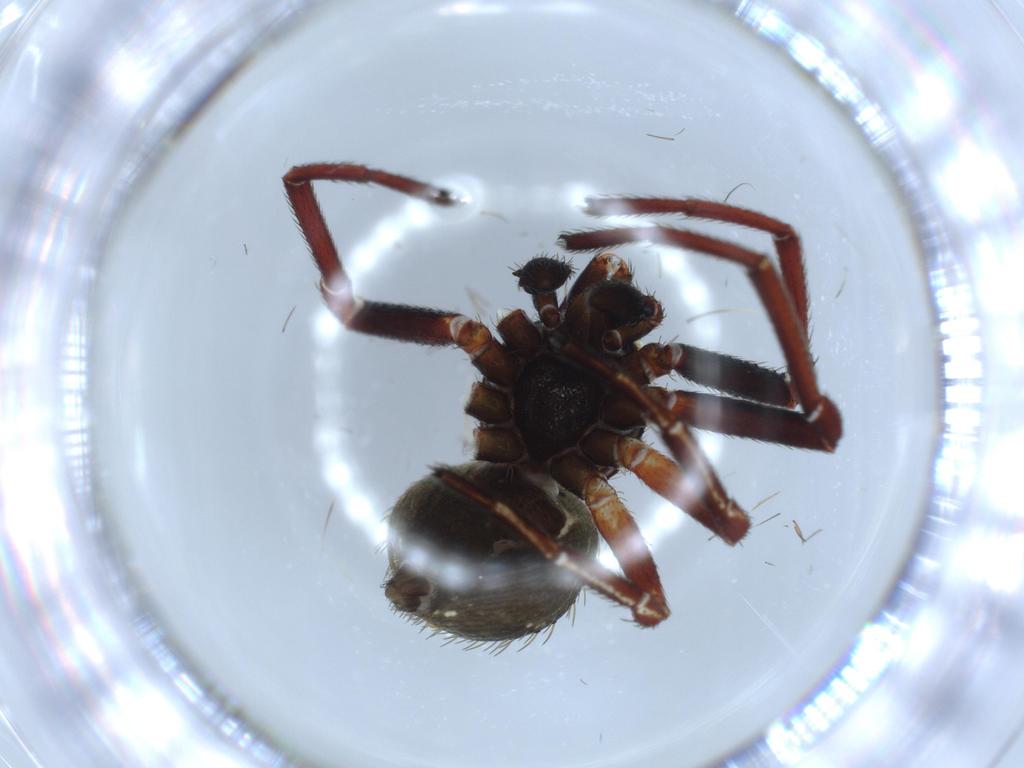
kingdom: Animalia
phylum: Arthropoda
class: Arachnida
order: Araneae
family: Thomisidae
